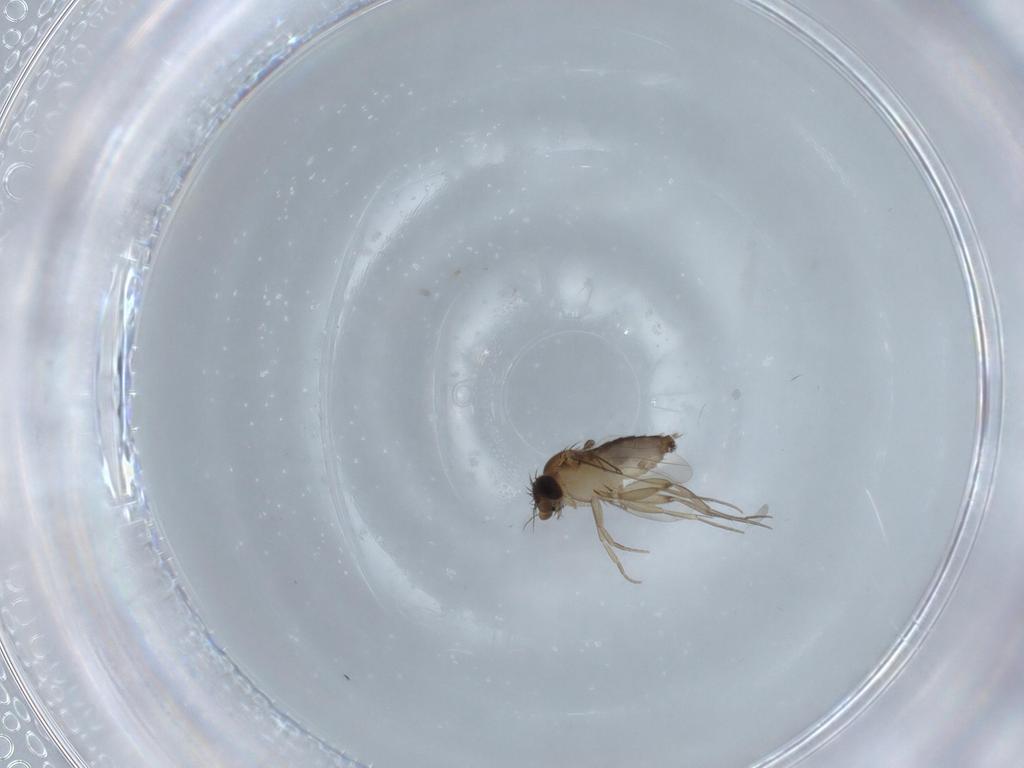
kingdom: Animalia
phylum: Arthropoda
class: Insecta
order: Diptera
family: Phoridae
